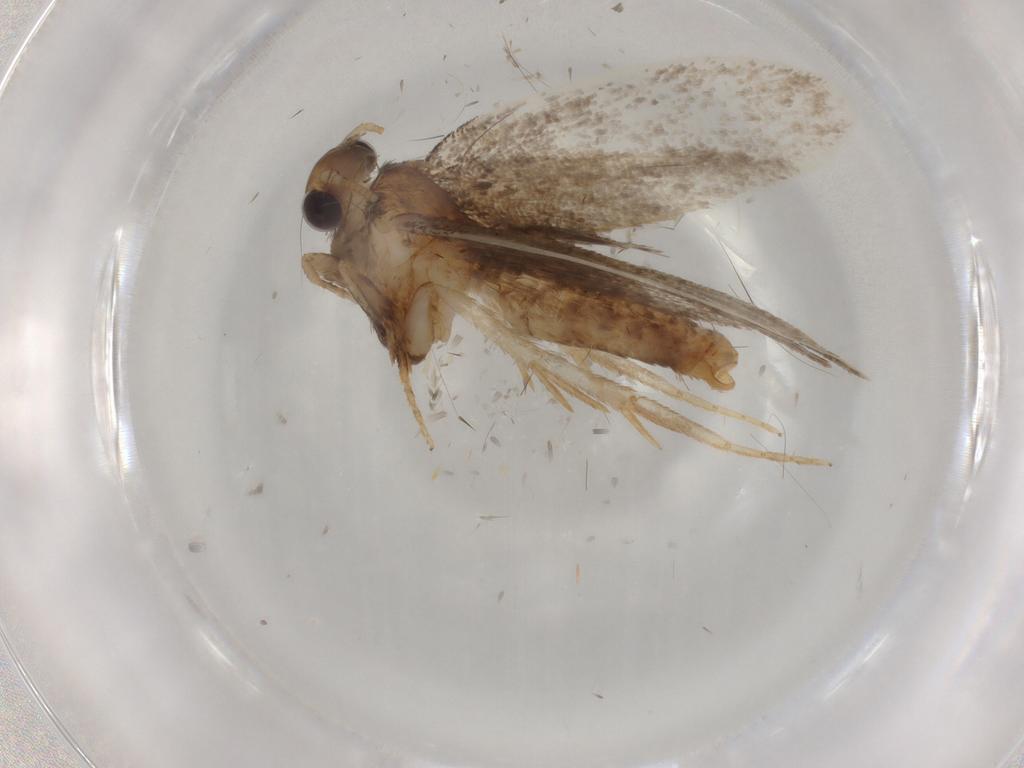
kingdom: Animalia
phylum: Arthropoda
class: Insecta
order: Lepidoptera
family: Tineidae
